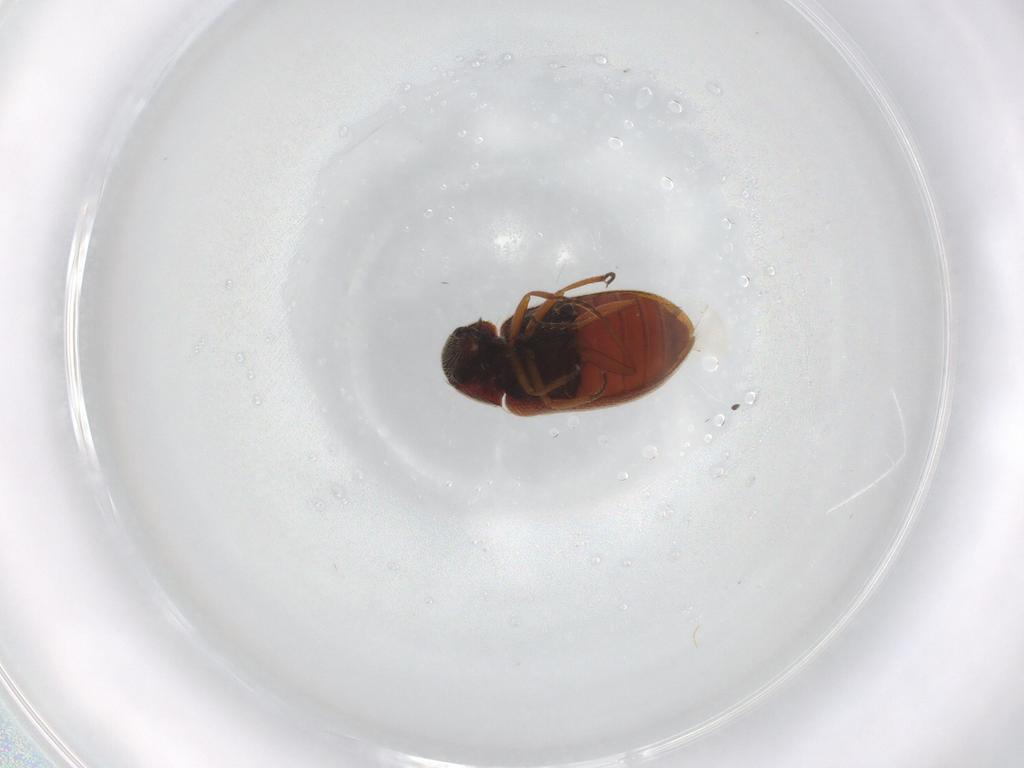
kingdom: Animalia
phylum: Arthropoda
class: Insecta
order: Coleoptera
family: Rhadalidae
